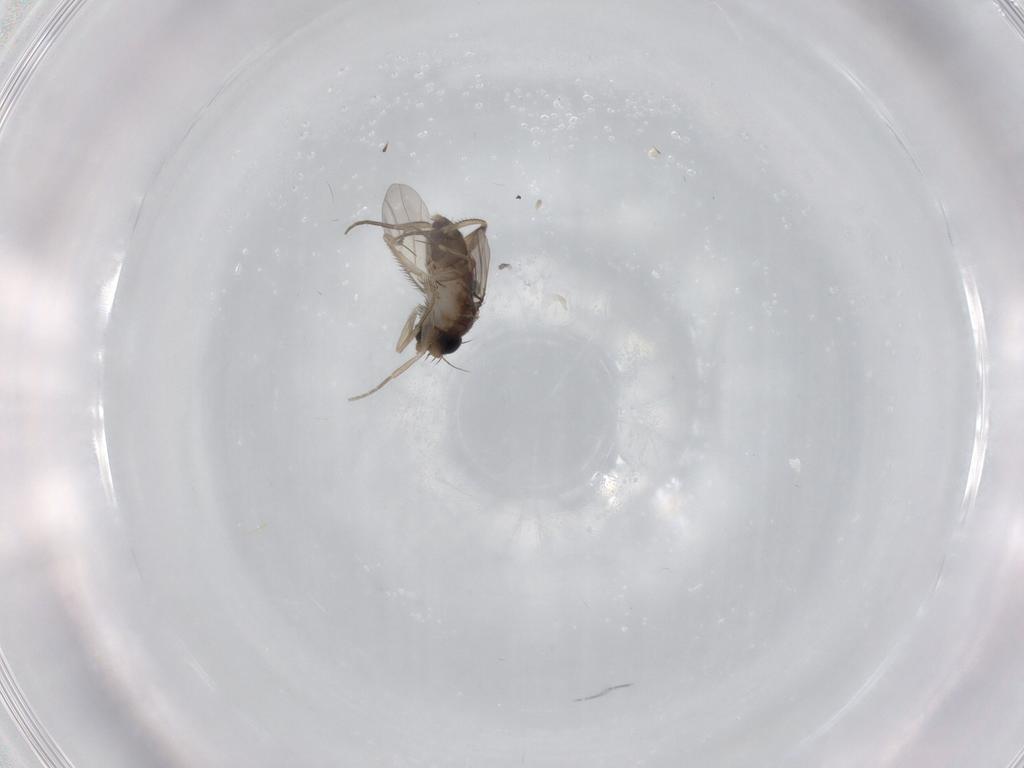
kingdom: Animalia
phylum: Arthropoda
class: Insecta
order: Diptera
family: Phoridae
